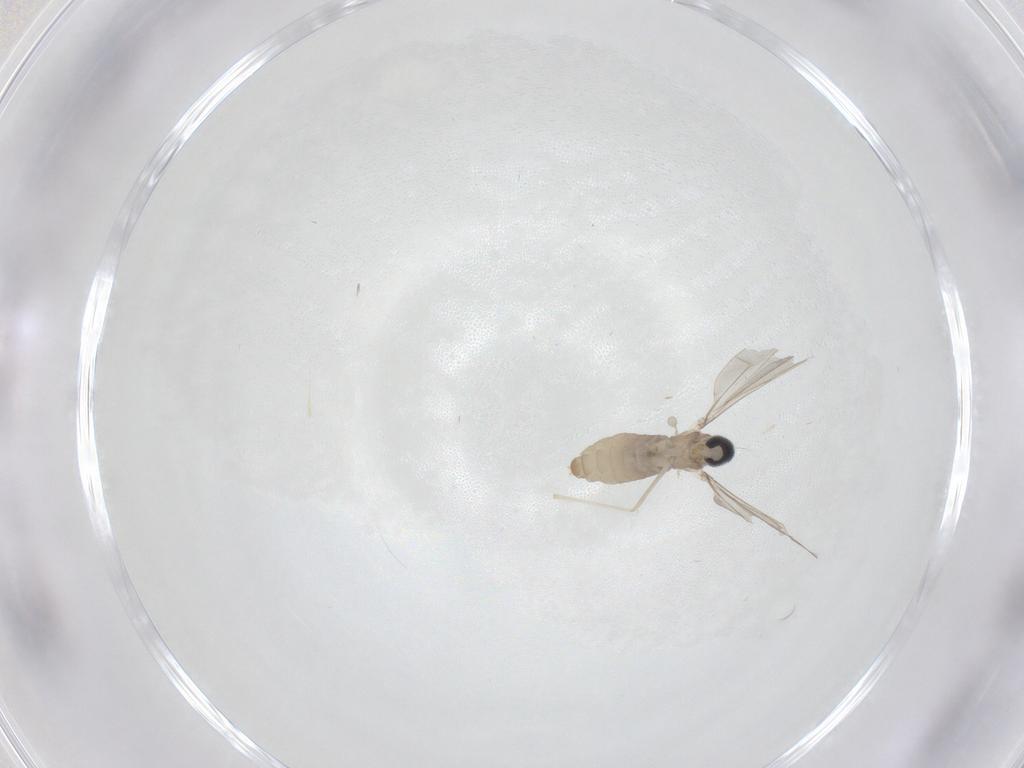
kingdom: Animalia
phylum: Arthropoda
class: Insecta
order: Diptera
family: Cecidomyiidae
